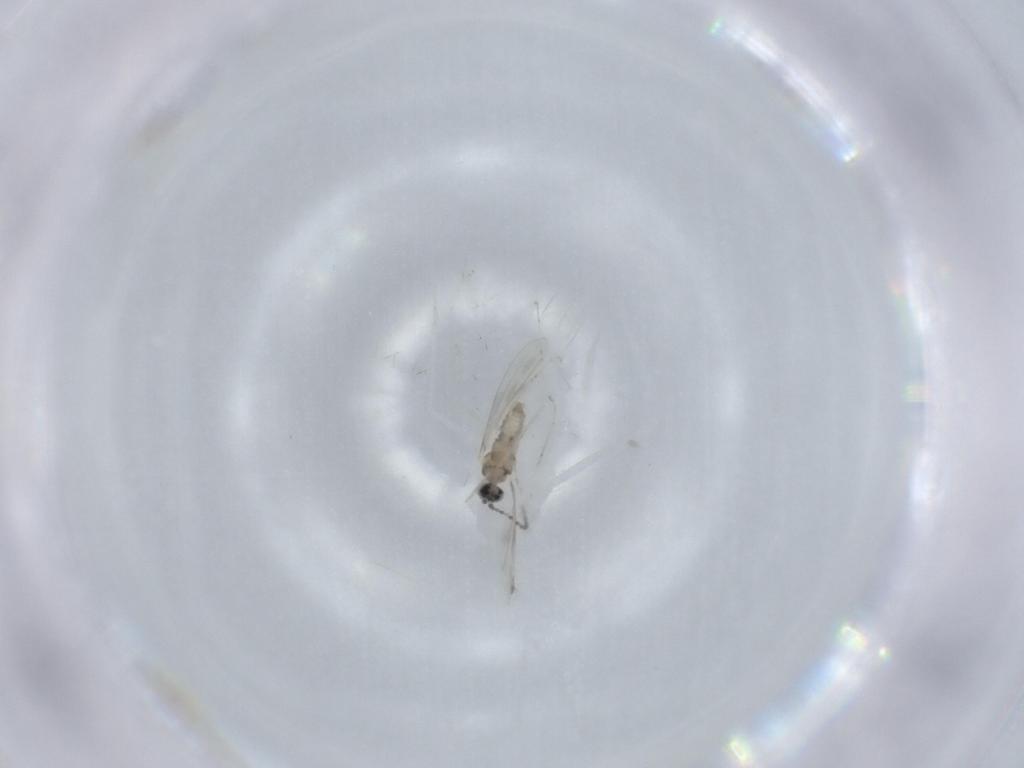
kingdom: Animalia
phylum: Arthropoda
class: Insecta
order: Diptera
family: Cecidomyiidae
